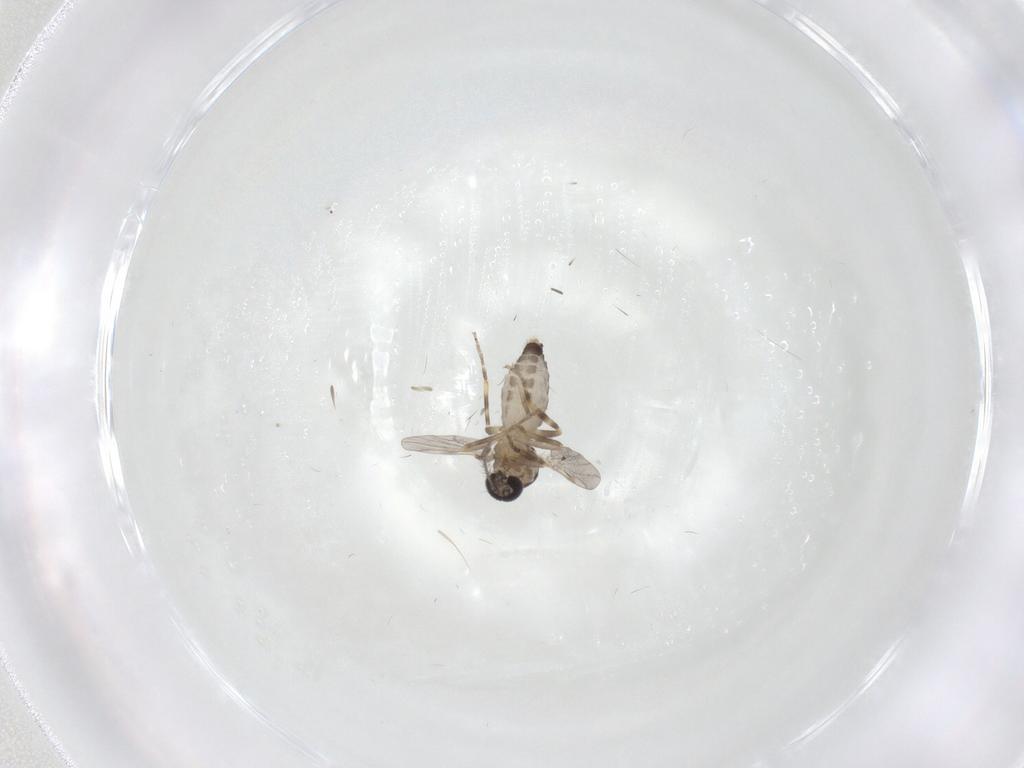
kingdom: Animalia
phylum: Arthropoda
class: Insecta
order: Diptera
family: Ceratopogonidae
